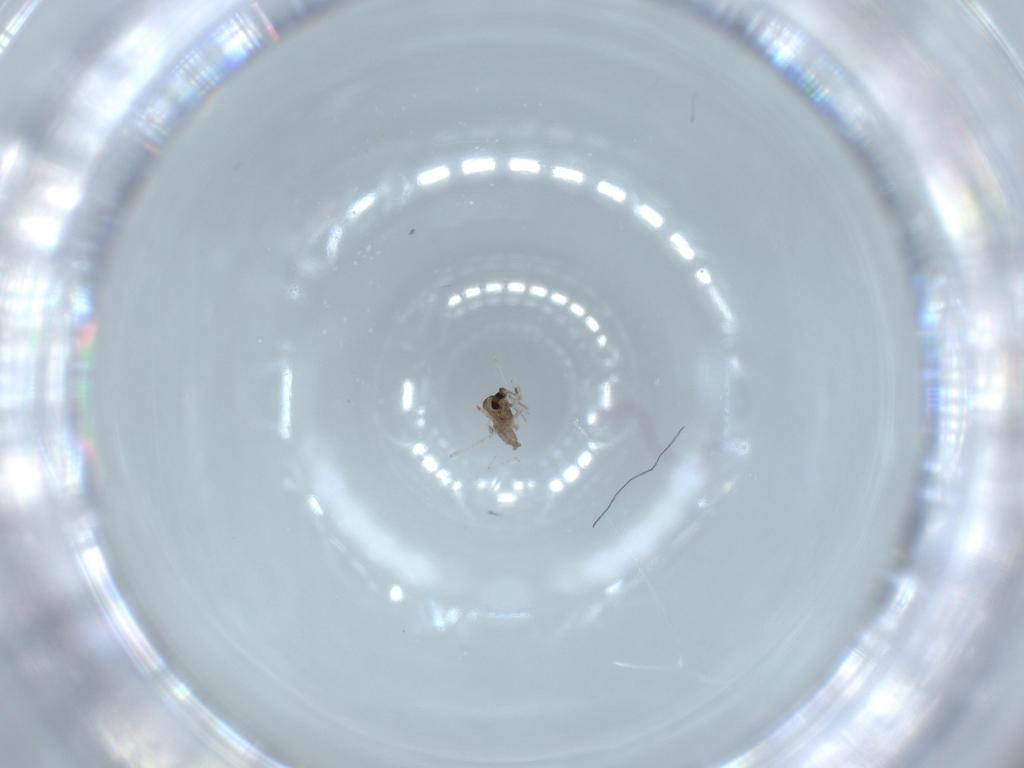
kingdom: Animalia
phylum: Arthropoda
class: Insecta
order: Diptera
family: Cecidomyiidae
